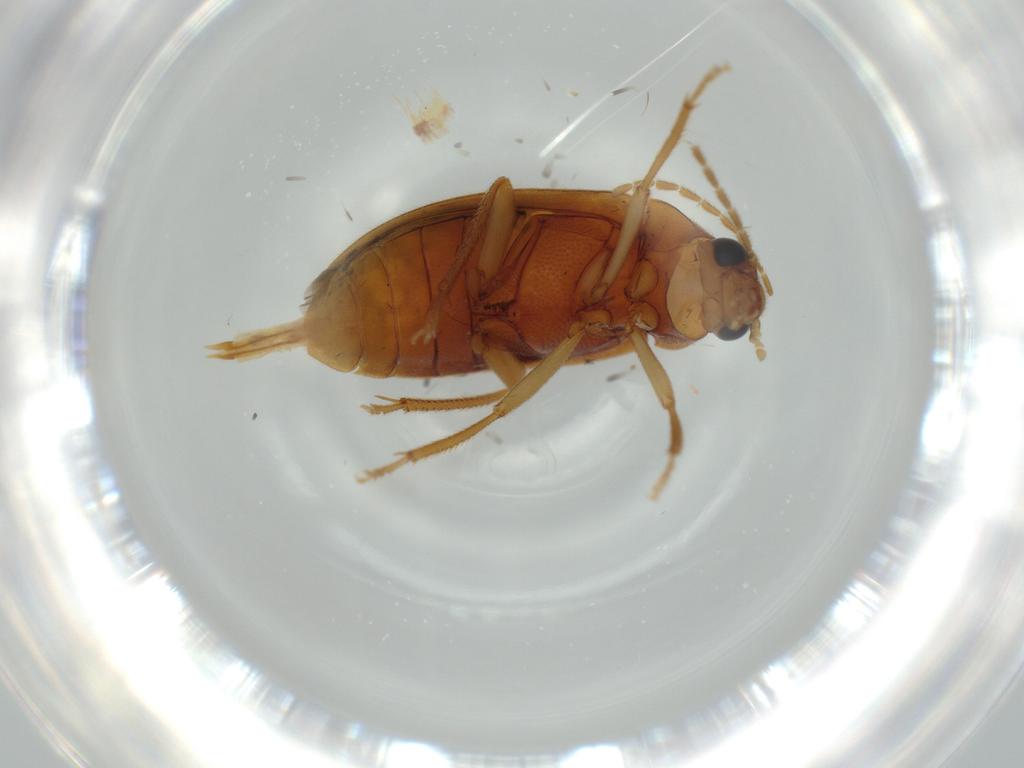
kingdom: Animalia
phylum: Arthropoda
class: Insecta
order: Coleoptera
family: Ptilodactylidae
